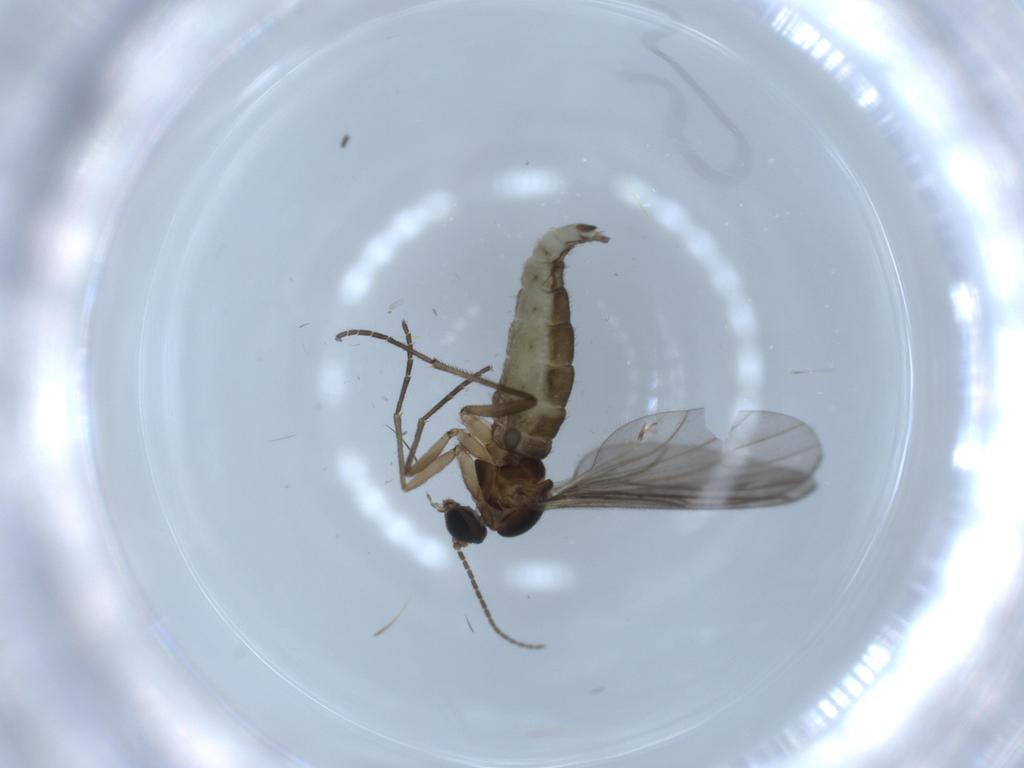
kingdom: Animalia
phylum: Arthropoda
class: Insecta
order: Diptera
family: Sciaridae
